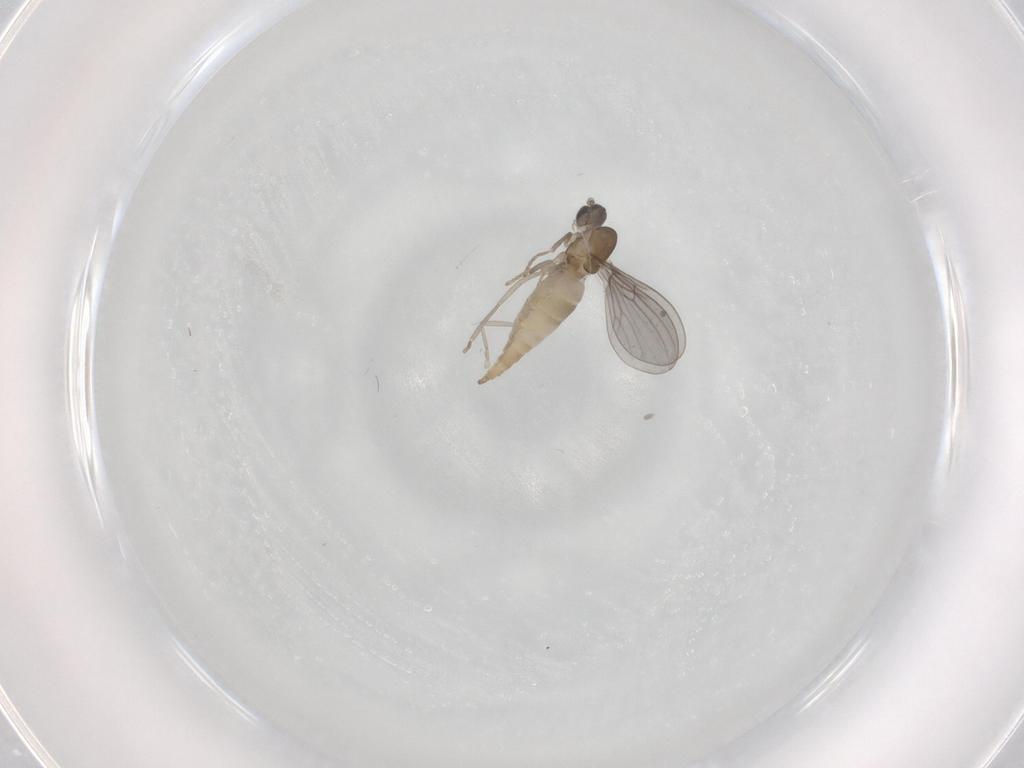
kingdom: Animalia
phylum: Arthropoda
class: Insecta
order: Diptera
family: Cecidomyiidae
